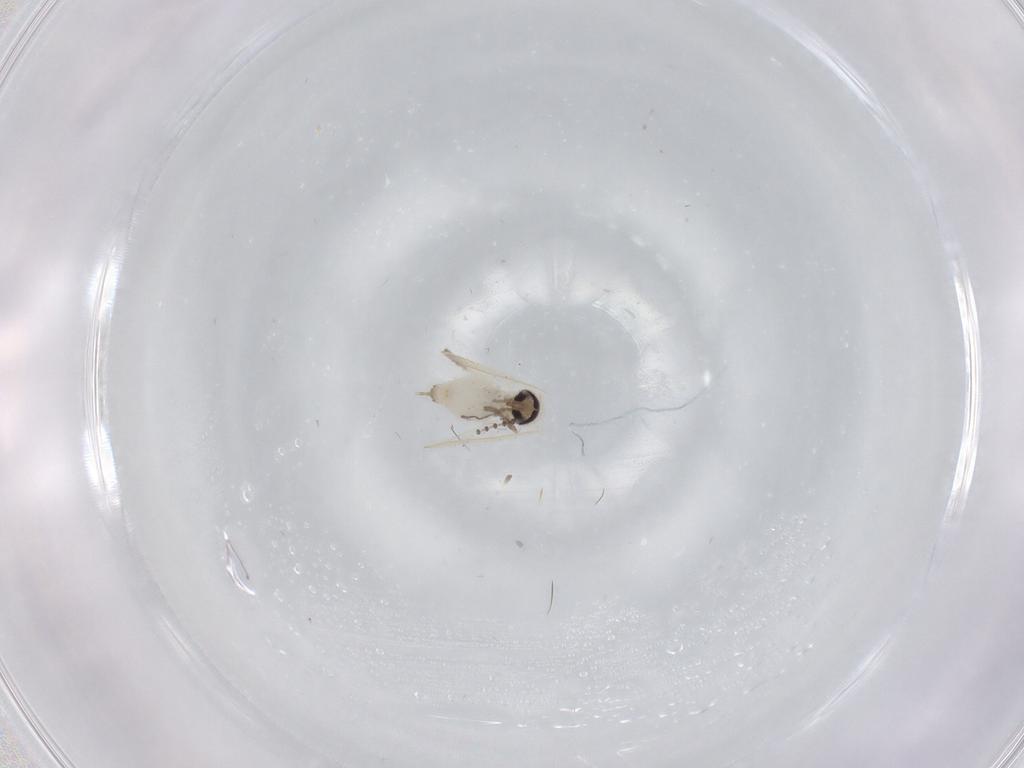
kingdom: Animalia
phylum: Arthropoda
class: Insecta
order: Diptera
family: Psychodidae
